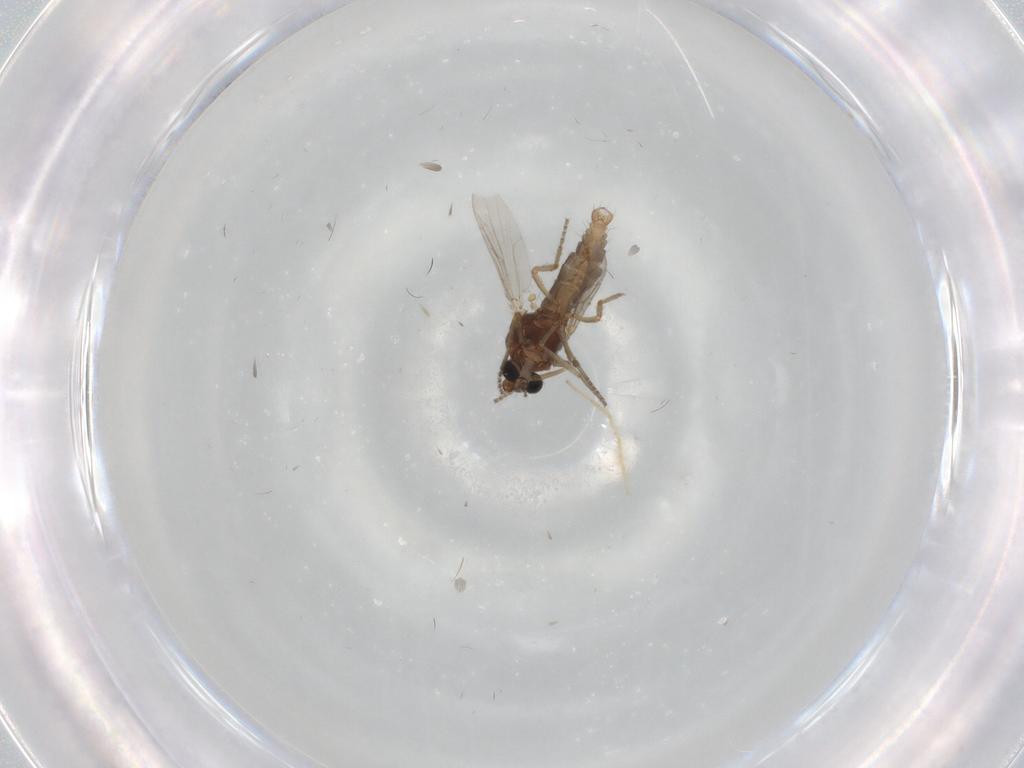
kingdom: Animalia
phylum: Arthropoda
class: Insecta
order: Diptera
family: Ceratopogonidae
